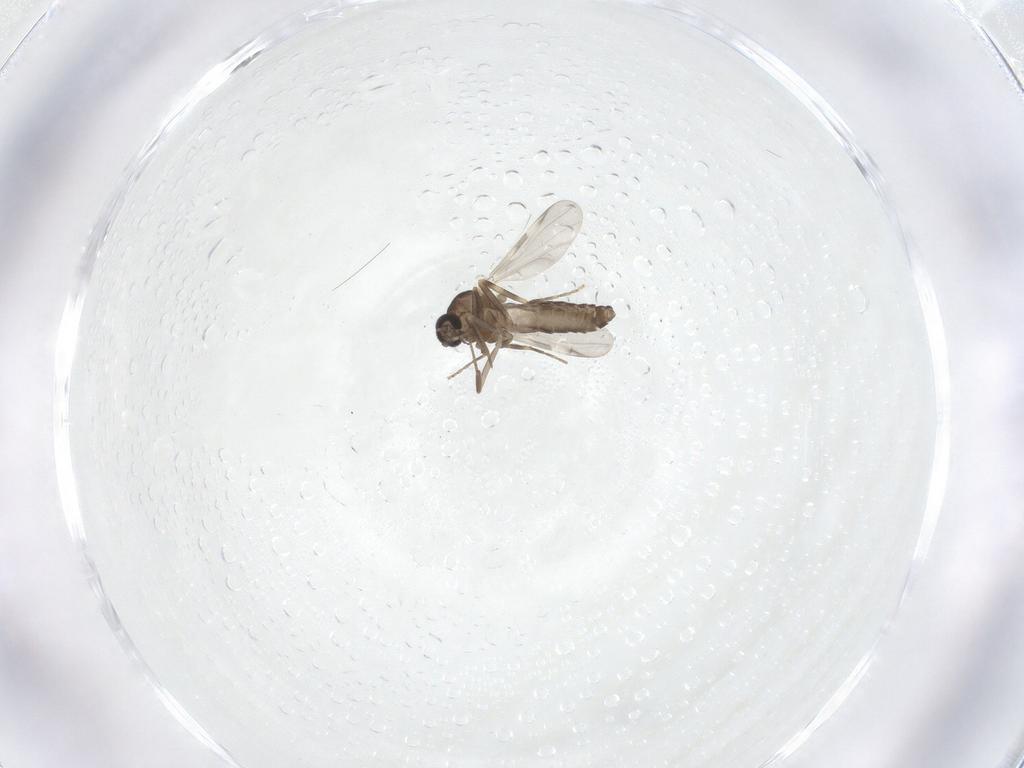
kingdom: Animalia
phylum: Arthropoda
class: Insecta
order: Diptera
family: Ceratopogonidae
